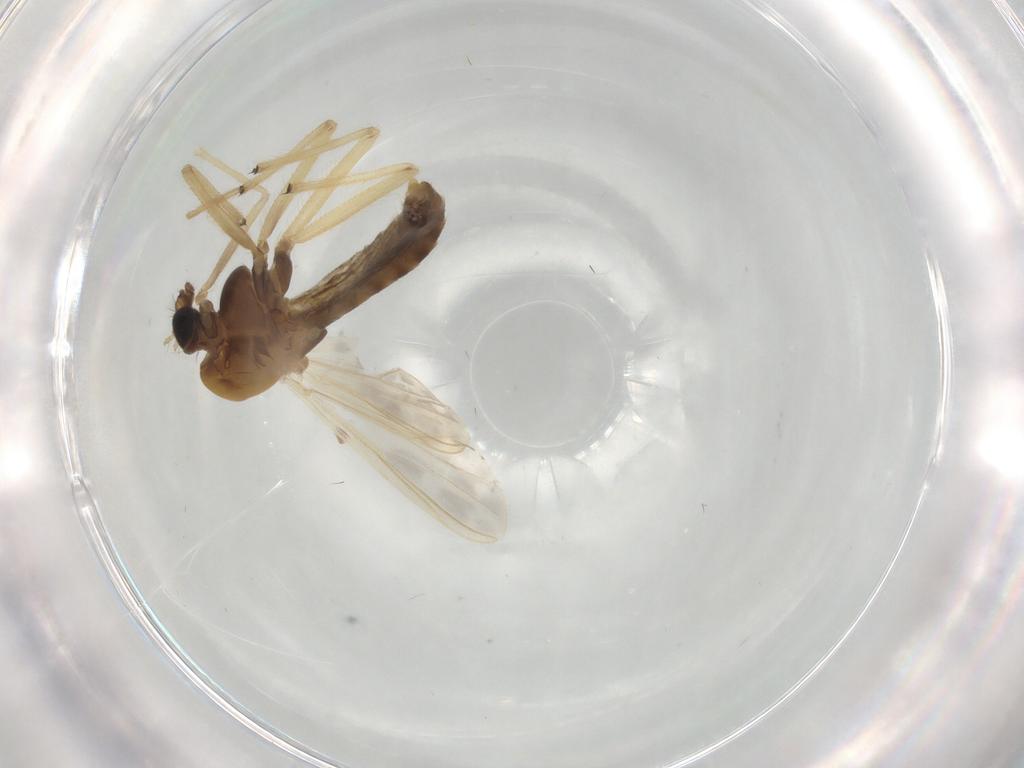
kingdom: Animalia
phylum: Arthropoda
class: Insecta
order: Diptera
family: Chironomidae
